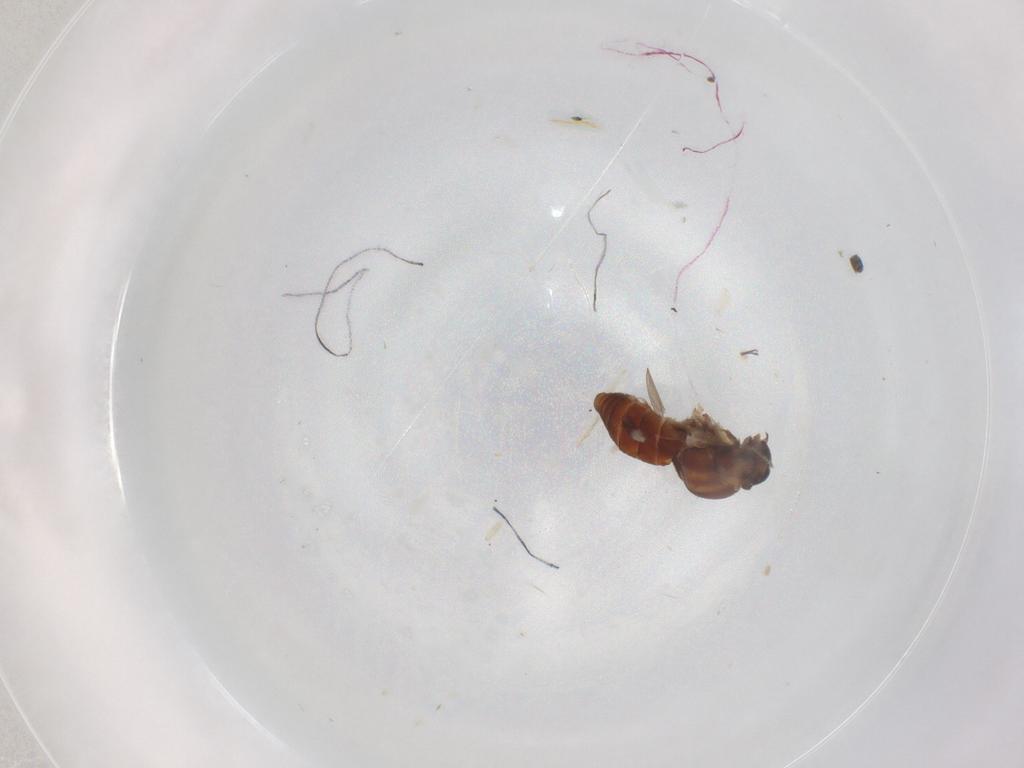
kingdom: Animalia
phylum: Arthropoda
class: Insecta
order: Diptera
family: Ceratopogonidae
